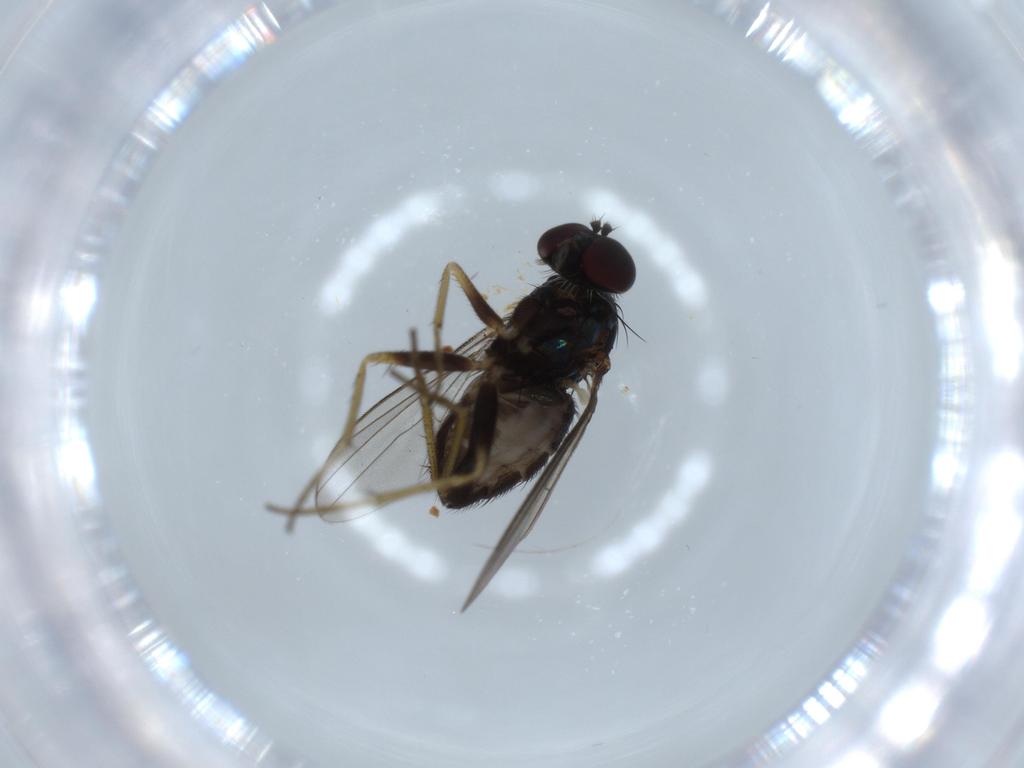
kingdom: Animalia
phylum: Arthropoda
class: Insecta
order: Diptera
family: Dolichopodidae
